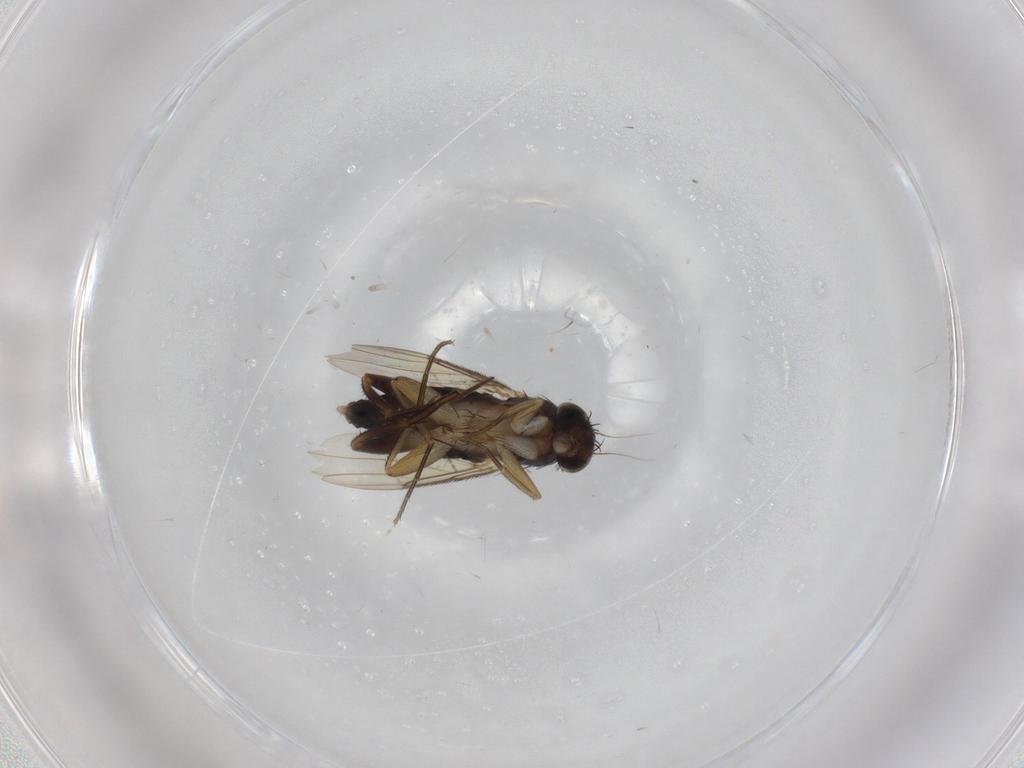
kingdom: Animalia
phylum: Arthropoda
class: Insecta
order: Diptera
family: Phoridae
